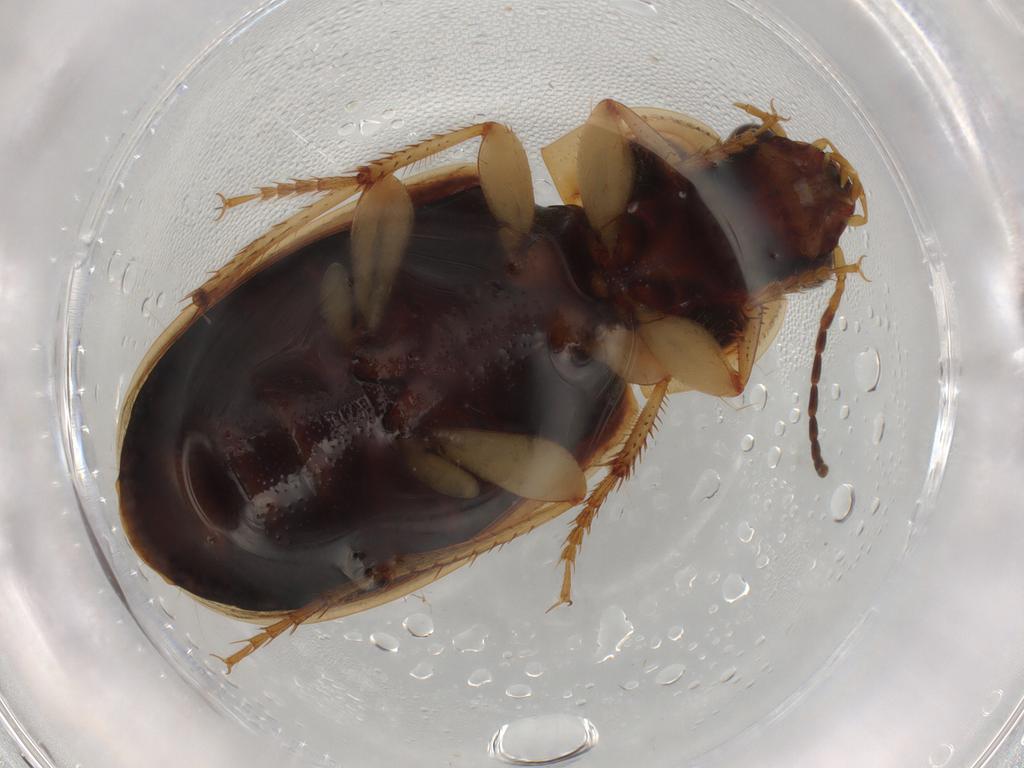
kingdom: Animalia
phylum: Arthropoda
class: Insecta
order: Coleoptera
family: Carabidae
